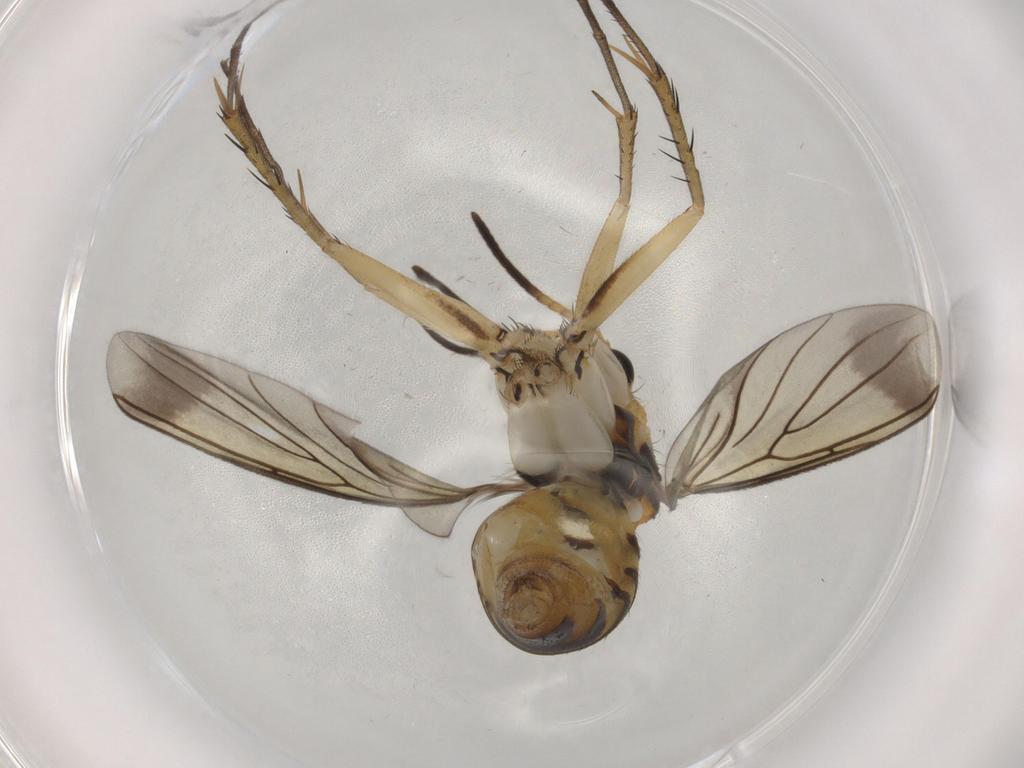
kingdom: Animalia
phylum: Arthropoda
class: Insecta
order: Diptera
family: Mycetophilidae
